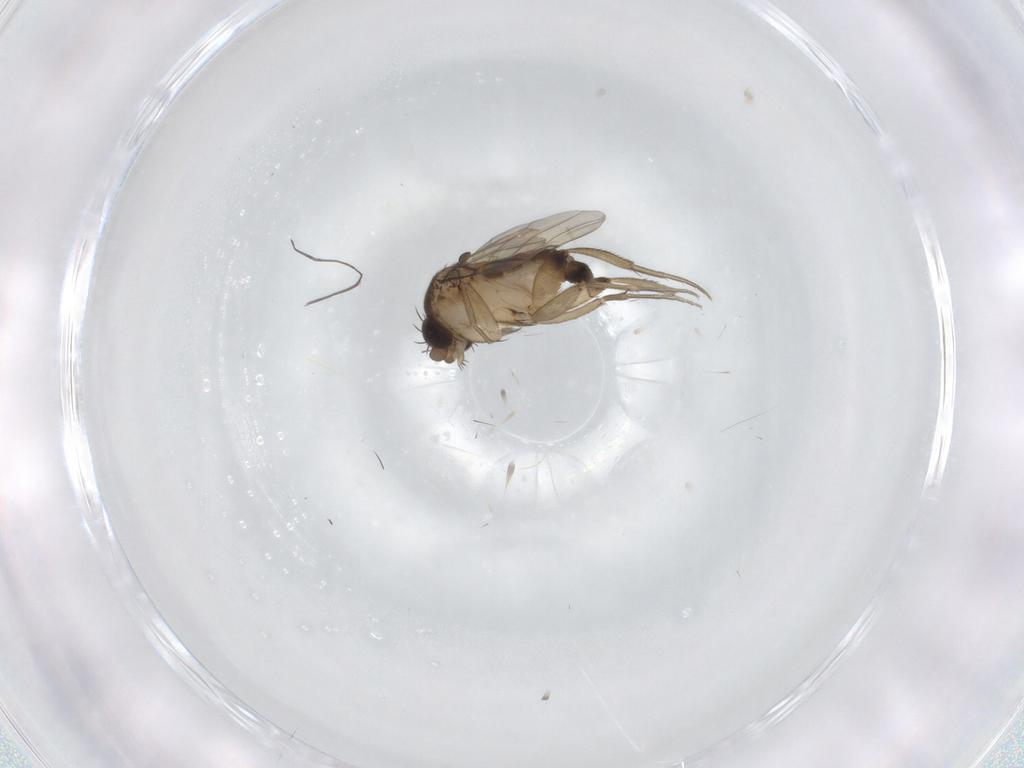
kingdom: Animalia
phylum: Arthropoda
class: Insecta
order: Diptera
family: Phoridae
